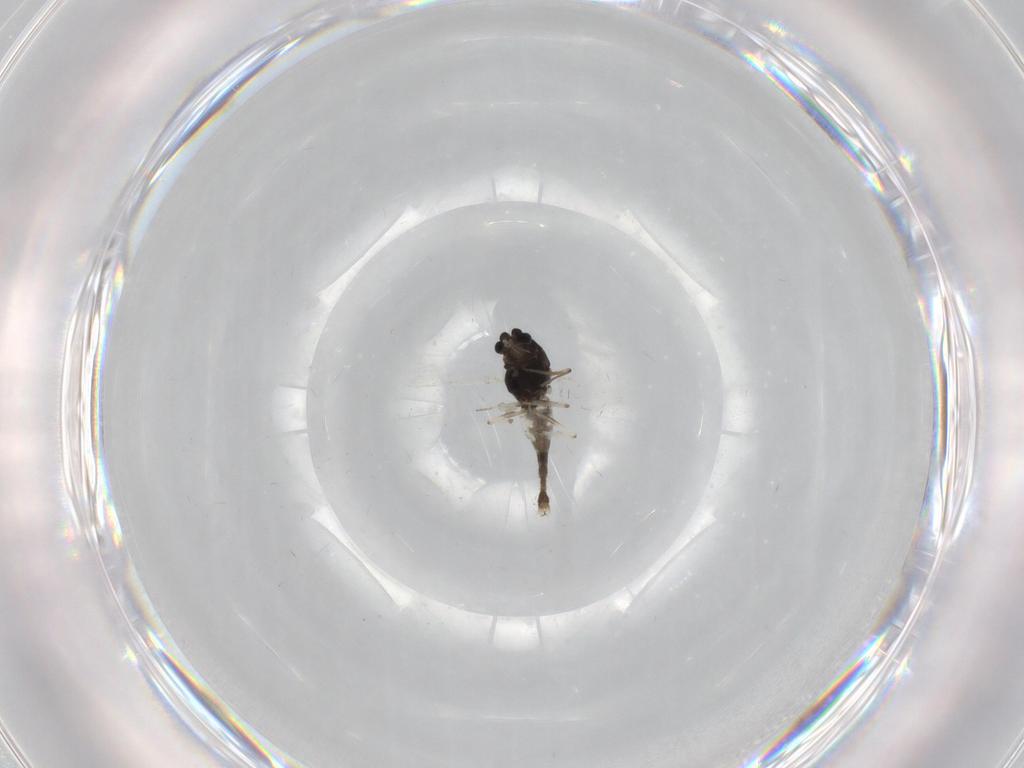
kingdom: Animalia
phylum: Arthropoda
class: Insecta
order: Diptera
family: Chironomidae
